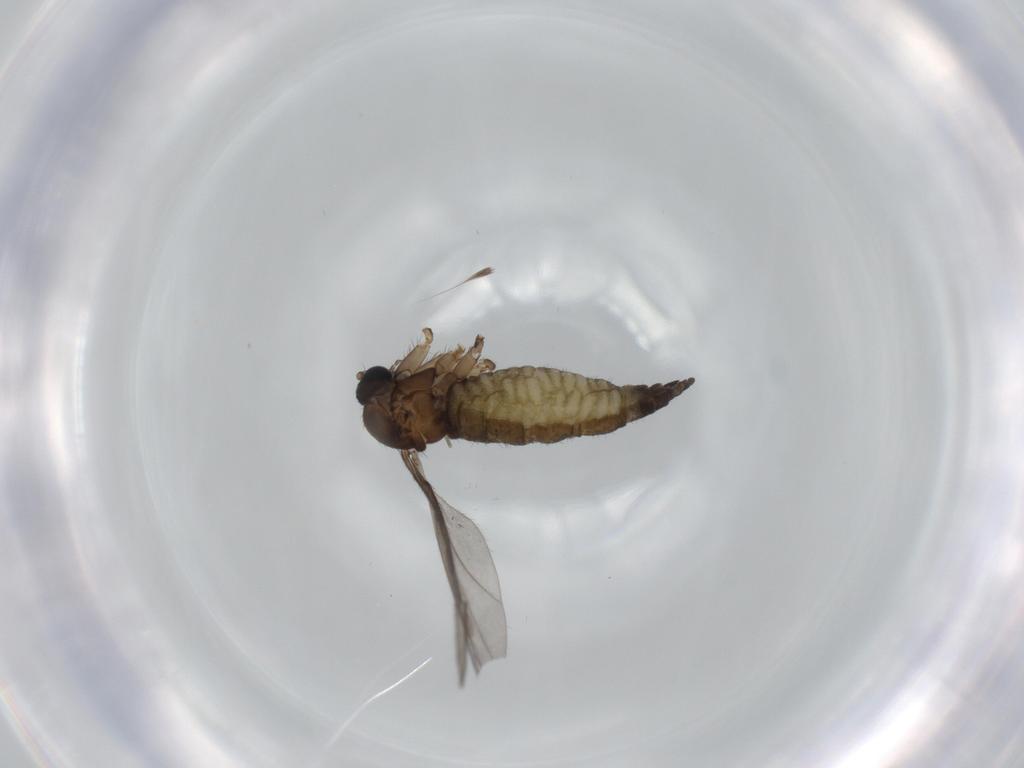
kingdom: Animalia
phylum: Arthropoda
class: Insecta
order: Diptera
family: Sciaridae
